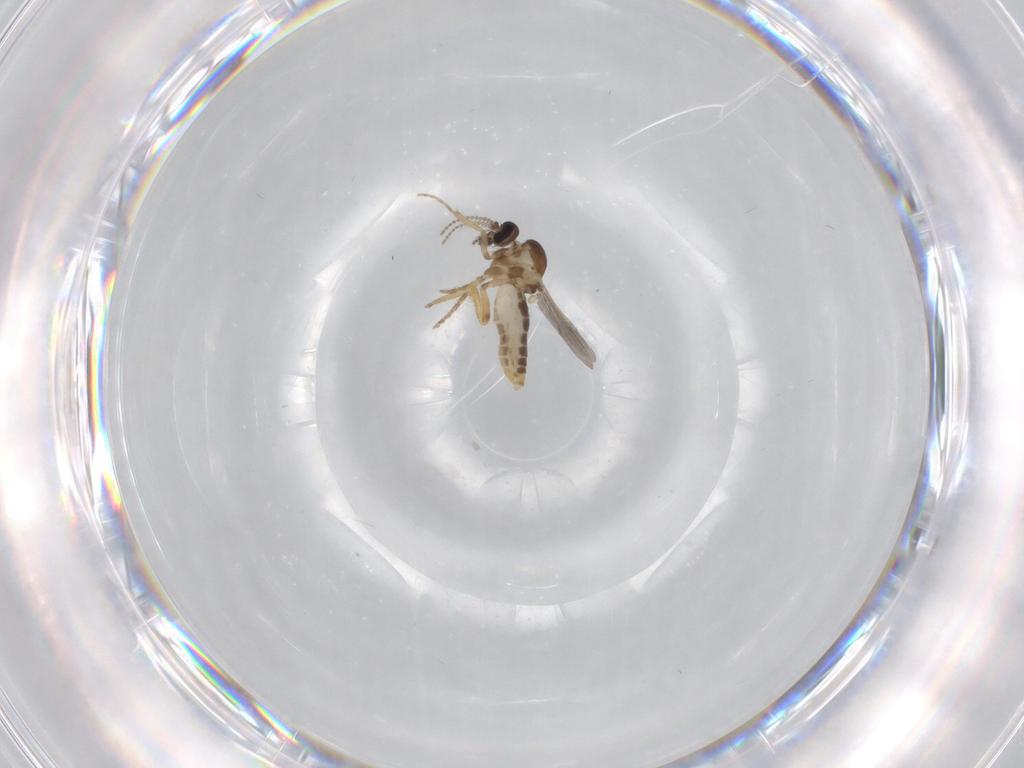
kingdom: Animalia
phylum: Arthropoda
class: Insecta
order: Diptera
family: Ceratopogonidae
